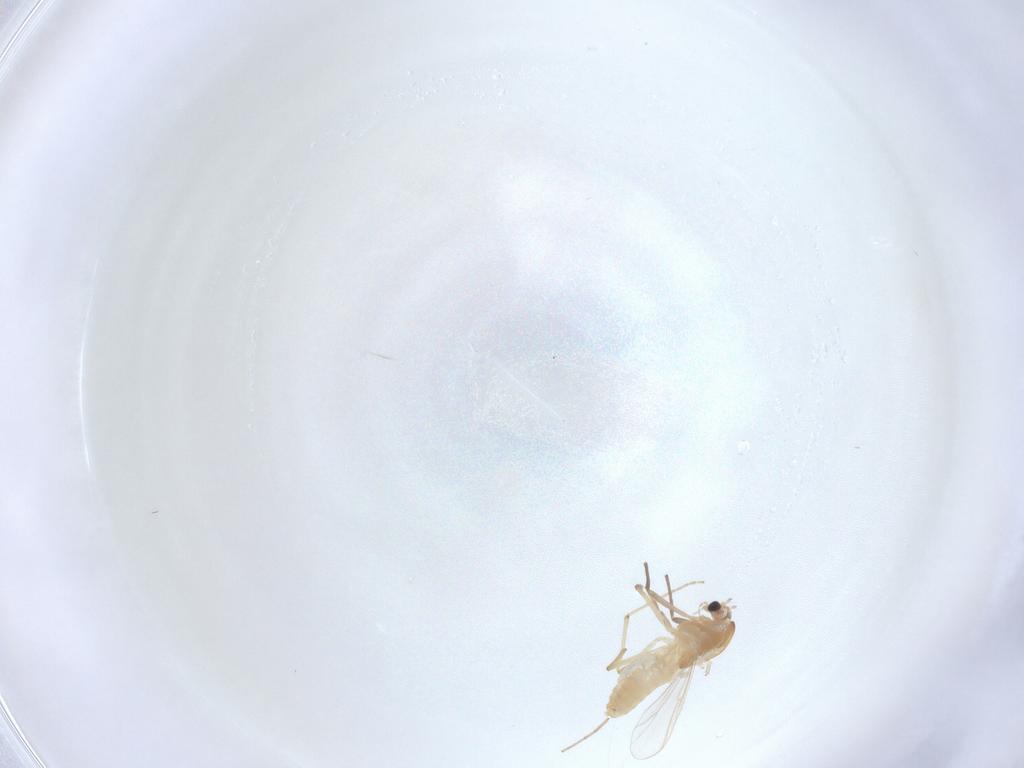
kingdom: Animalia
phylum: Arthropoda
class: Insecta
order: Diptera
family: Chironomidae
